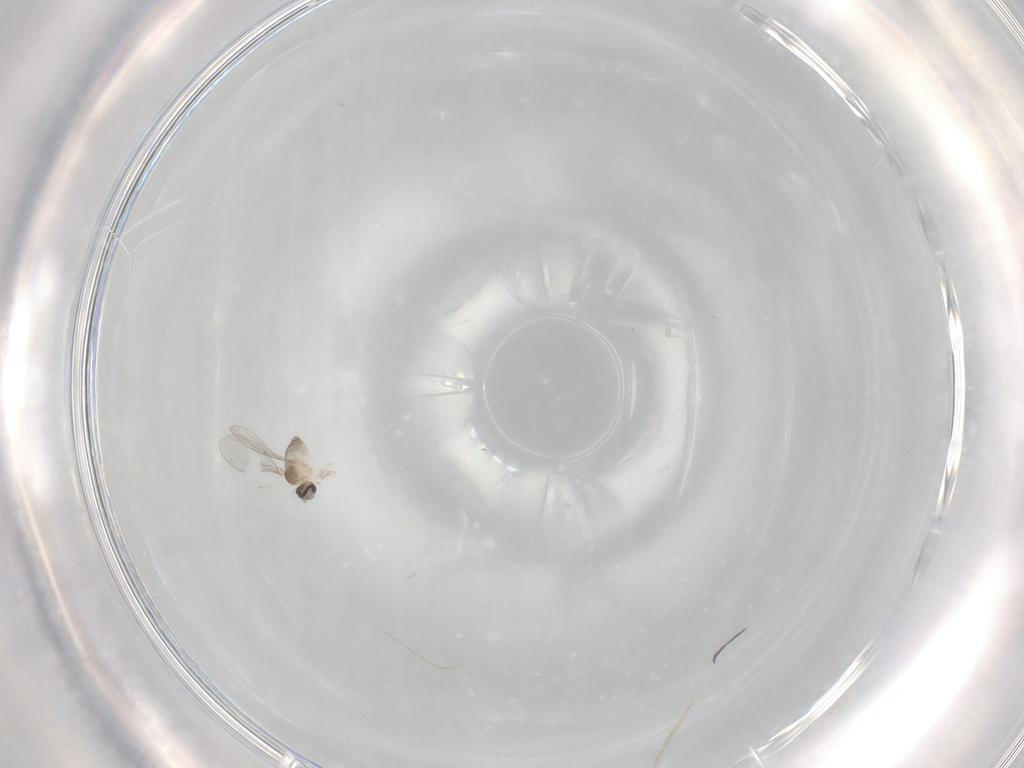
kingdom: Animalia
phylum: Arthropoda
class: Insecta
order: Diptera
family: Cecidomyiidae
